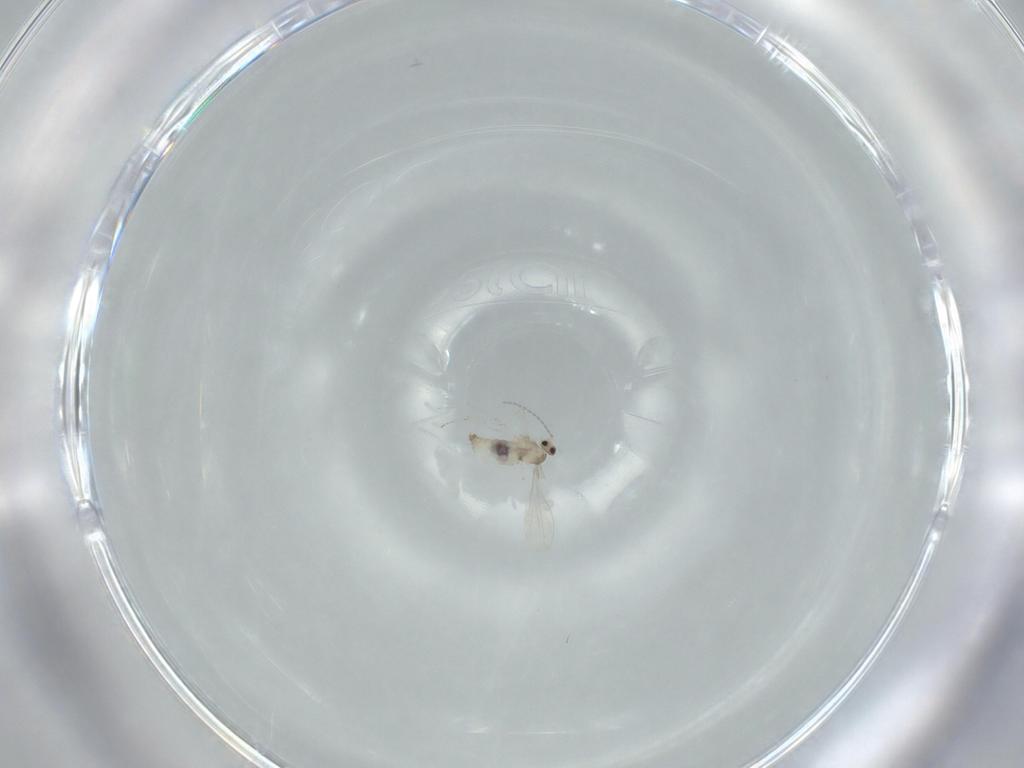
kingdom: Animalia
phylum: Arthropoda
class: Insecta
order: Diptera
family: Cecidomyiidae
